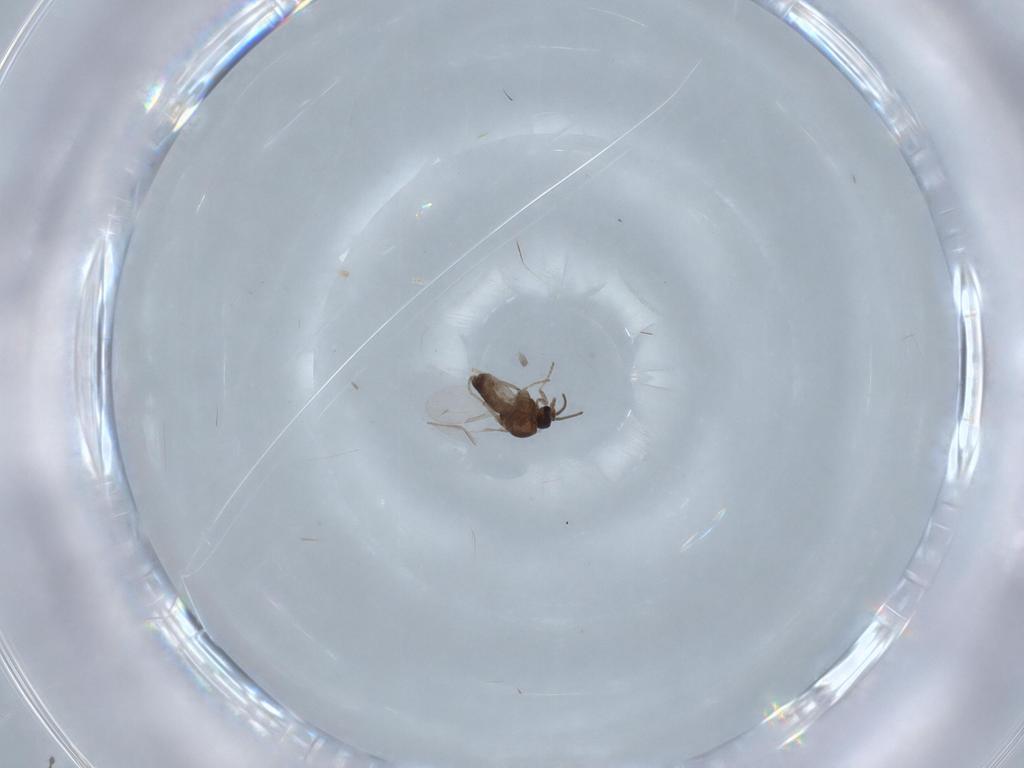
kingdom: Animalia
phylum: Arthropoda
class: Insecta
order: Diptera
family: Ceratopogonidae
